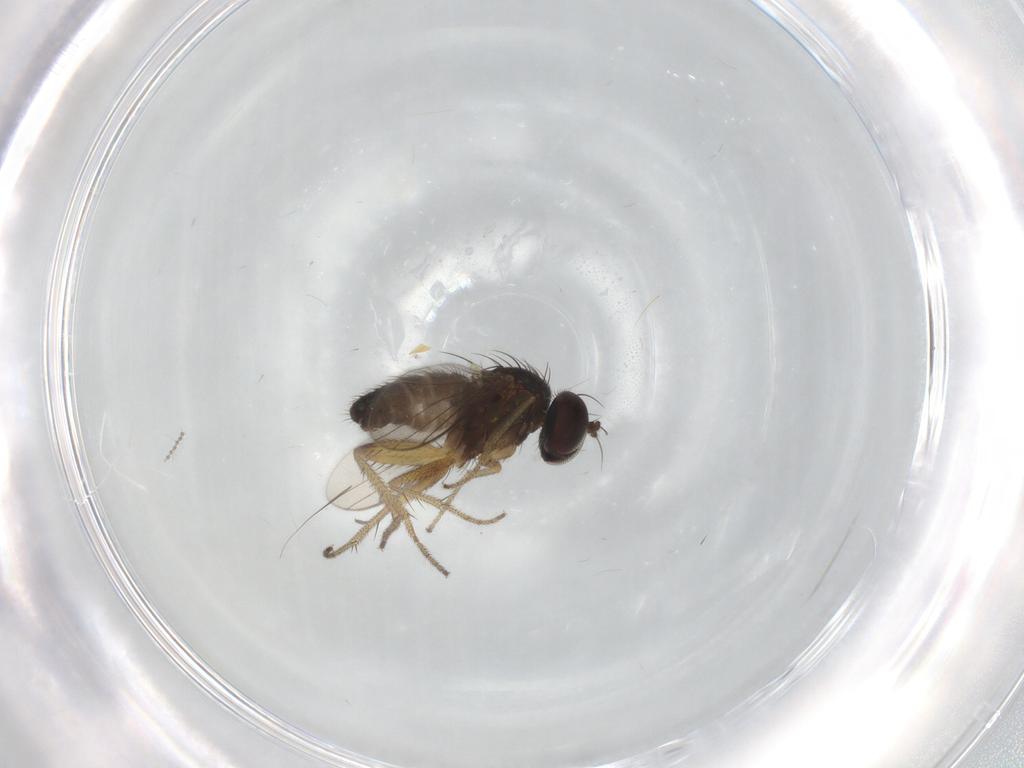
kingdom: Animalia
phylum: Arthropoda
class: Insecta
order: Diptera
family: Sciaridae
